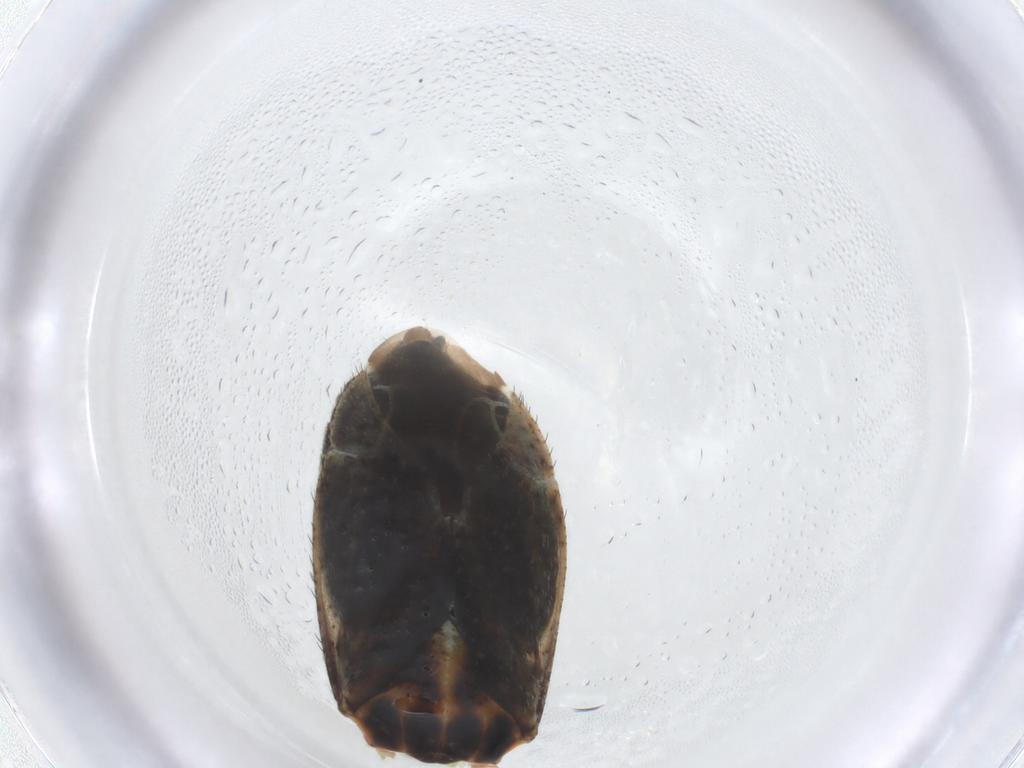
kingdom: Animalia
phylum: Arthropoda
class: Insecta
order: Hemiptera
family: Miridae
